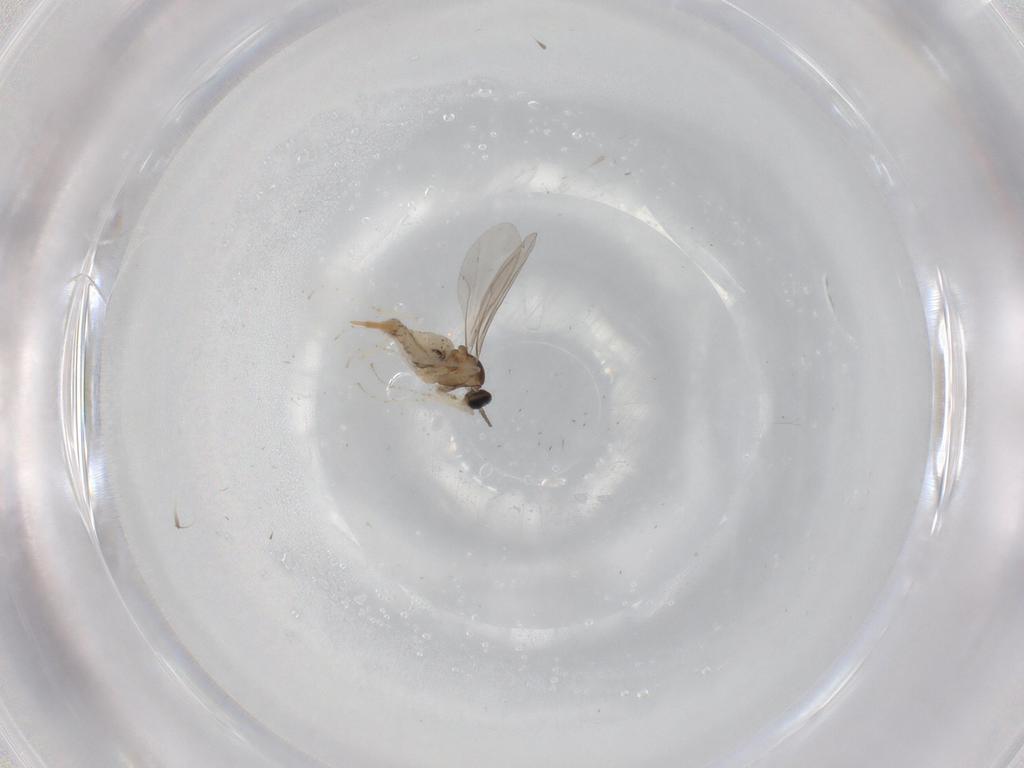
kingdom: Animalia
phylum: Arthropoda
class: Insecta
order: Diptera
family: Cecidomyiidae
